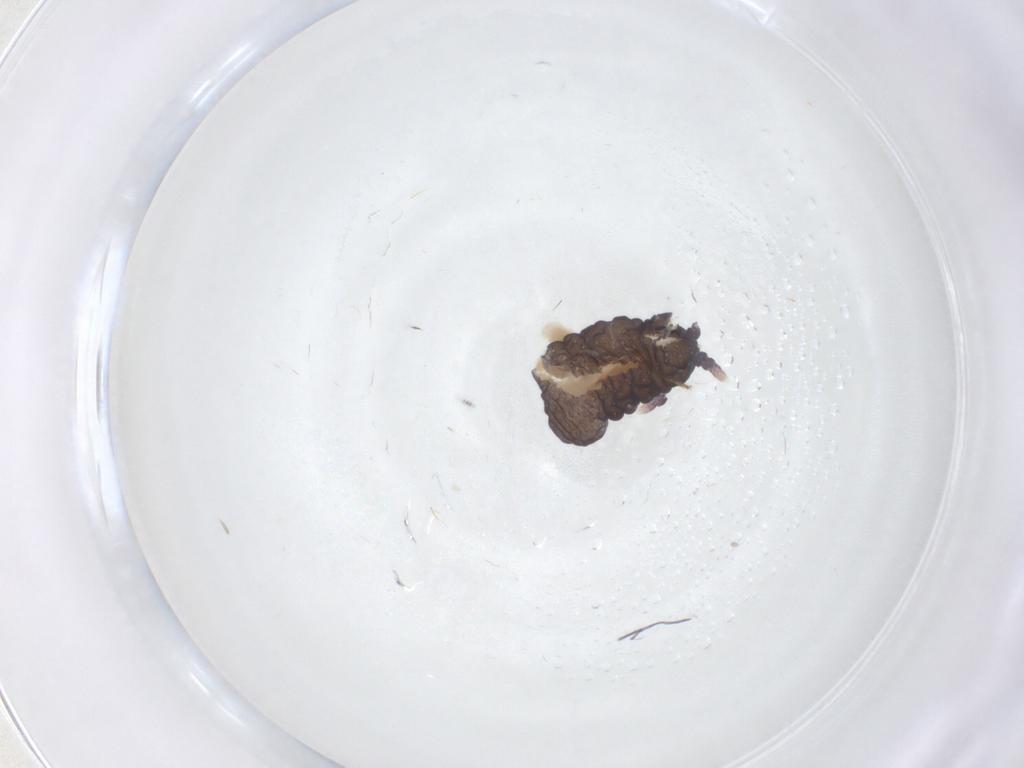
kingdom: Animalia
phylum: Arthropoda
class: Collembola
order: Poduromorpha
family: Neanuridae
